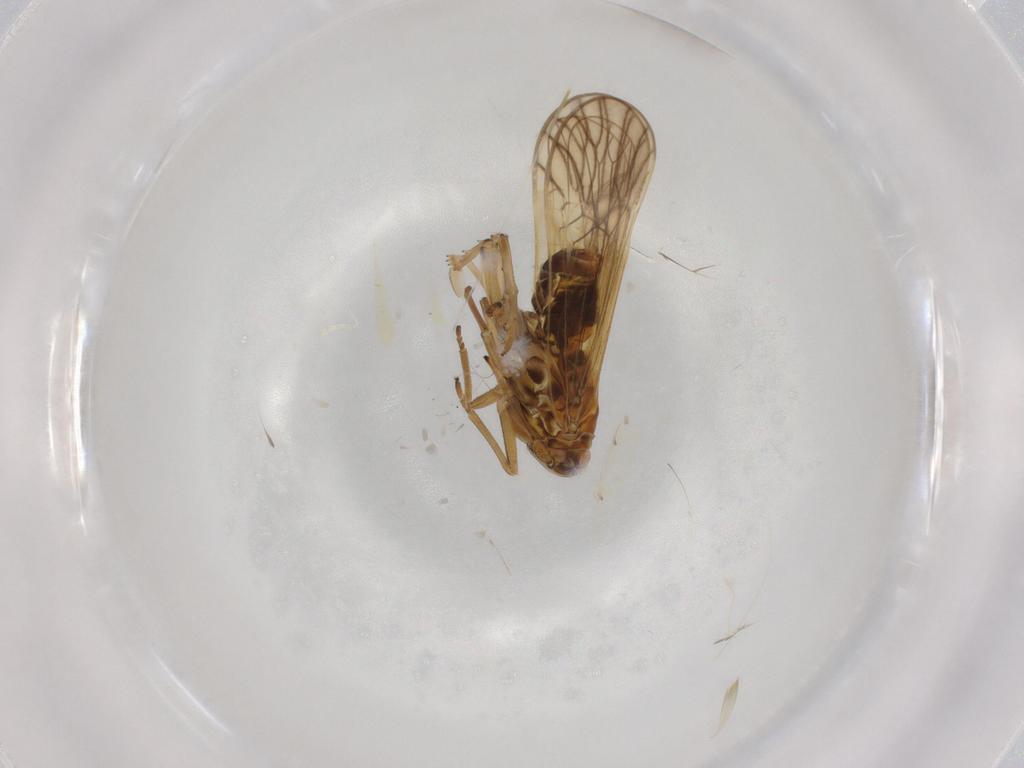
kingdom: Animalia
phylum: Arthropoda
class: Insecta
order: Hemiptera
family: Delphacidae
